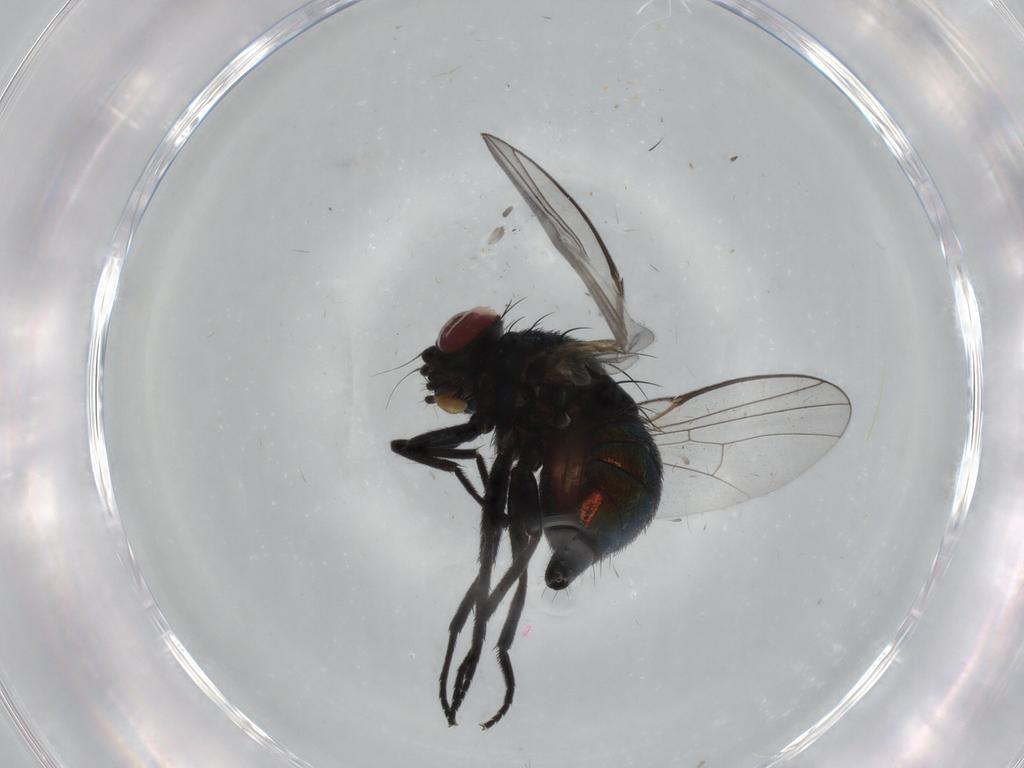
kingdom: Animalia
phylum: Arthropoda
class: Insecta
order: Diptera
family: Agromyzidae
